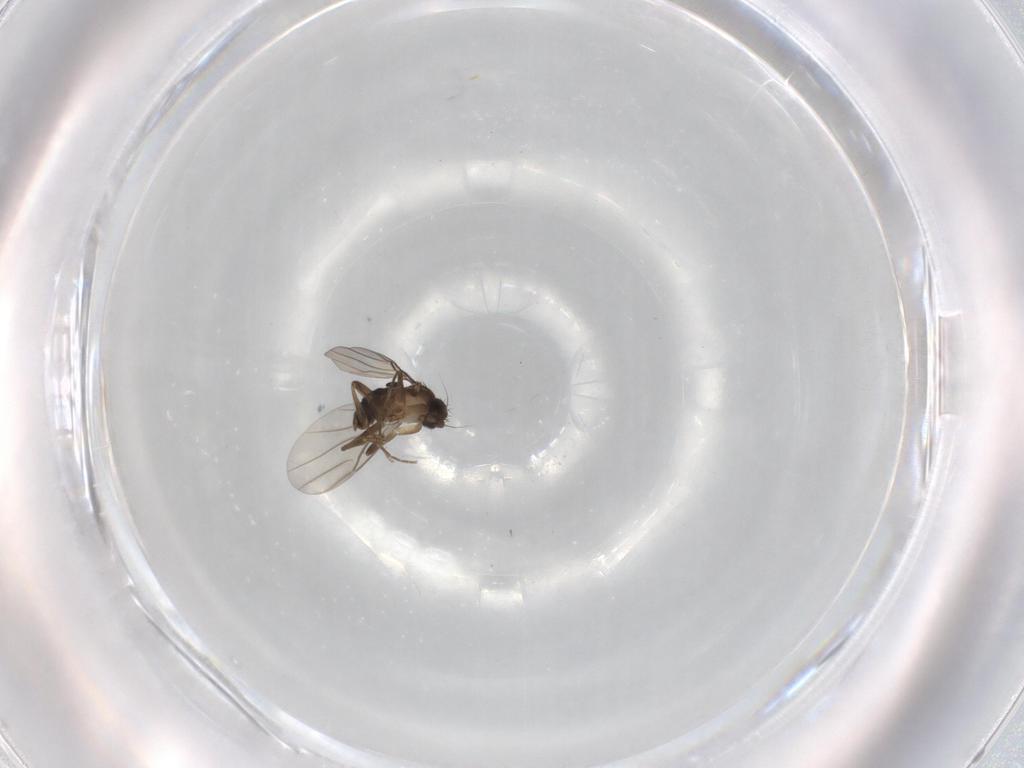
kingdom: Animalia
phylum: Arthropoda
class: Insecta
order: Diptera
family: Phoridae
